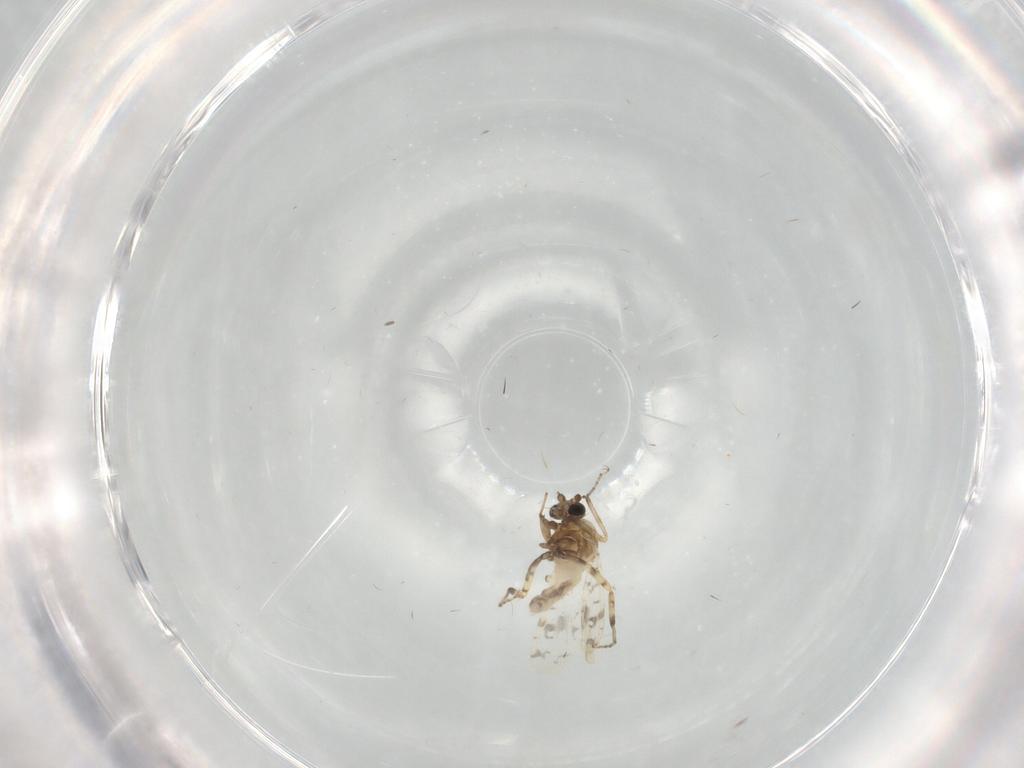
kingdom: Animalia
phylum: Arthropoda
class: Insecta
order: Diptera
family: Ceratopogonidae
